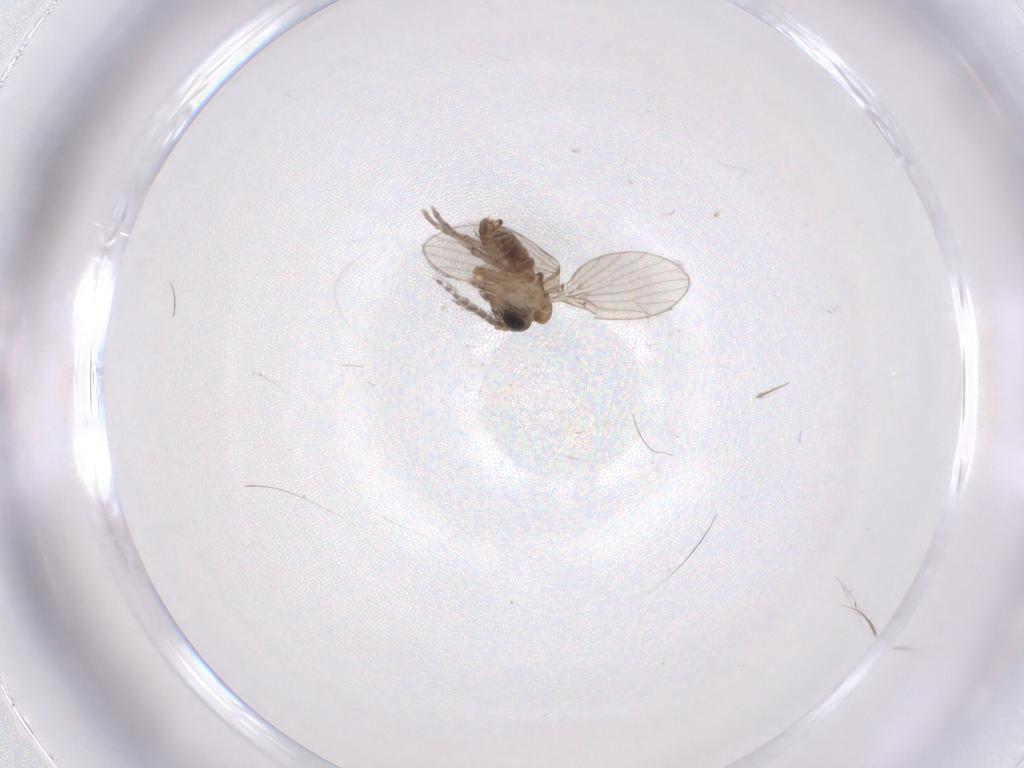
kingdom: Animalia
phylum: Arthropoda
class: Insecta
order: Diptera
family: Psychodidae
